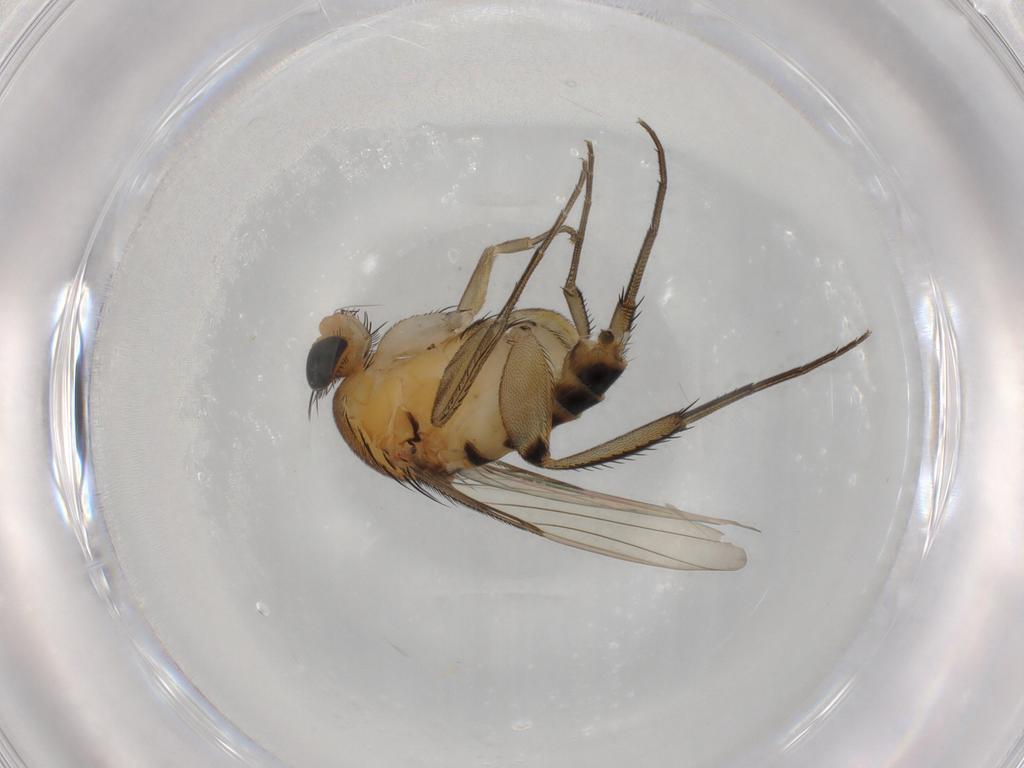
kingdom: Animalia
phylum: Arthropoda
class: Insecta
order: Diptera
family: Phoridae
